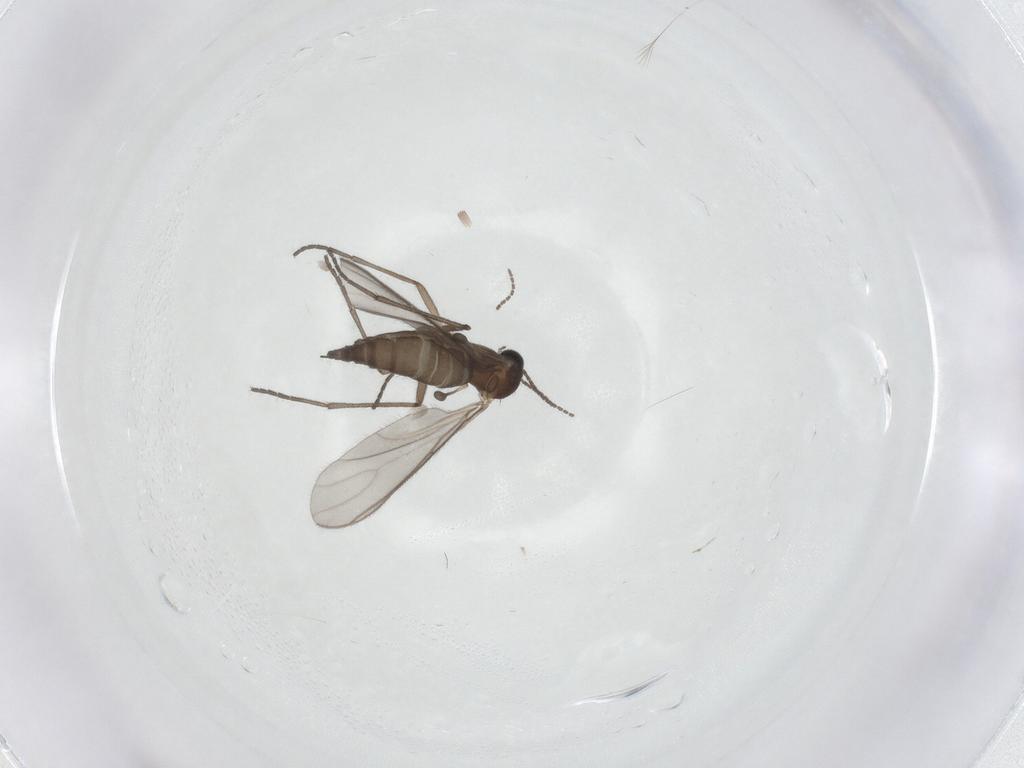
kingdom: Animalia
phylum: Arthropoda
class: Insecta
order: Diptera
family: Sciaridae
